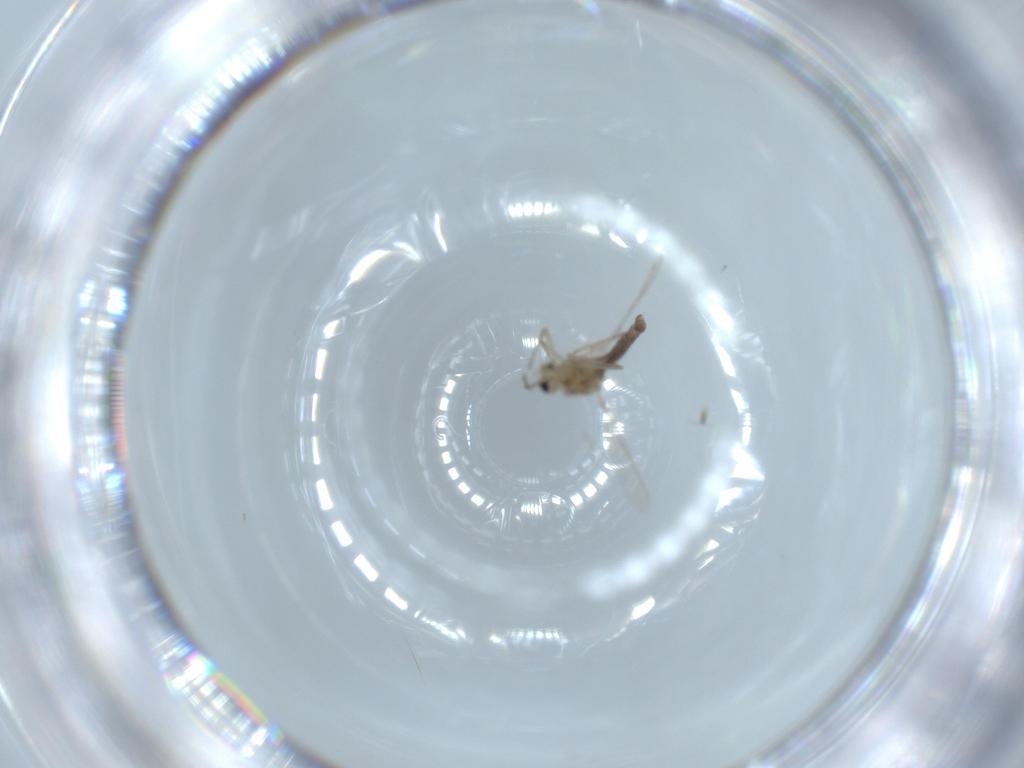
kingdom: Animalia
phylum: Arthropoda
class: Insecta
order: Diptera
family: Chironomidae
